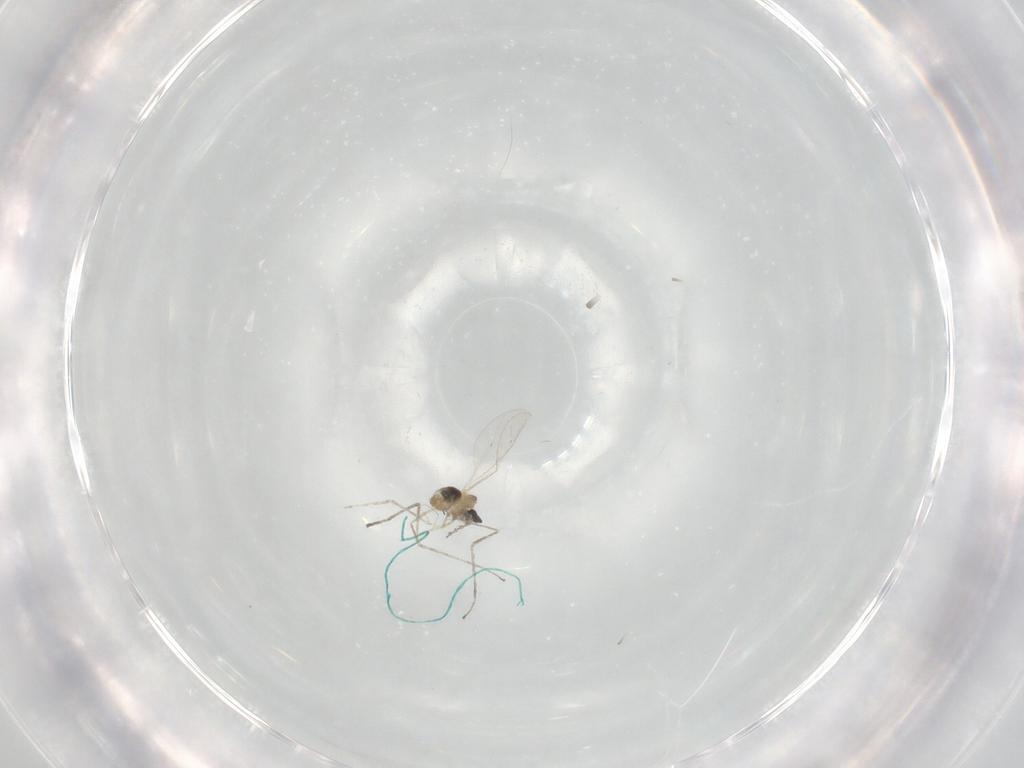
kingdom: Animalia
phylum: Arthropoda
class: Insecta
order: Diptera
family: Cecidomyiidae
